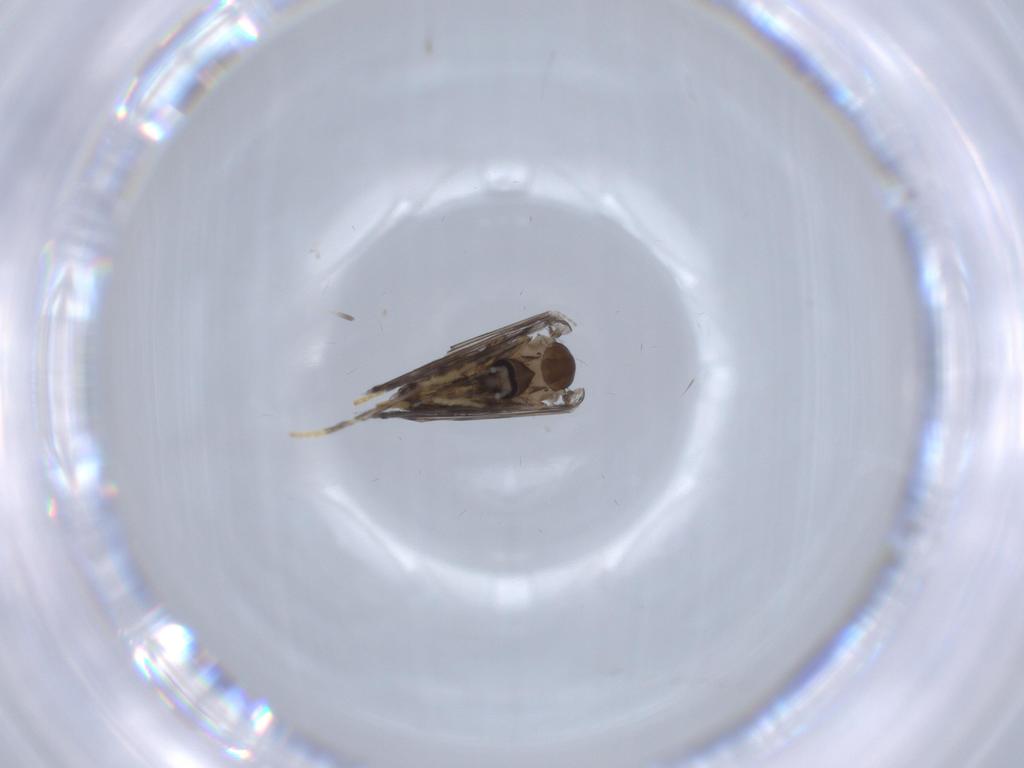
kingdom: Animalia
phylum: Arthropoda
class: Insecta
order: Diptera
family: Psychodidae
